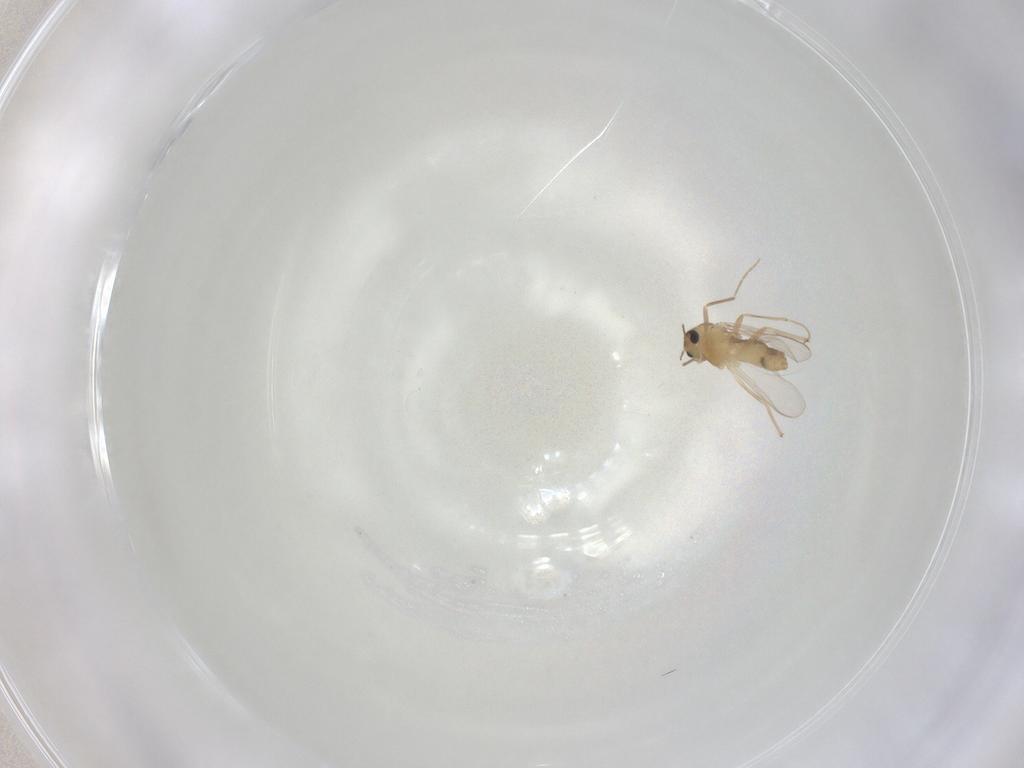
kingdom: Animalia
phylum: Arthropoda
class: Insecta
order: Diptera
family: Chironomidae
